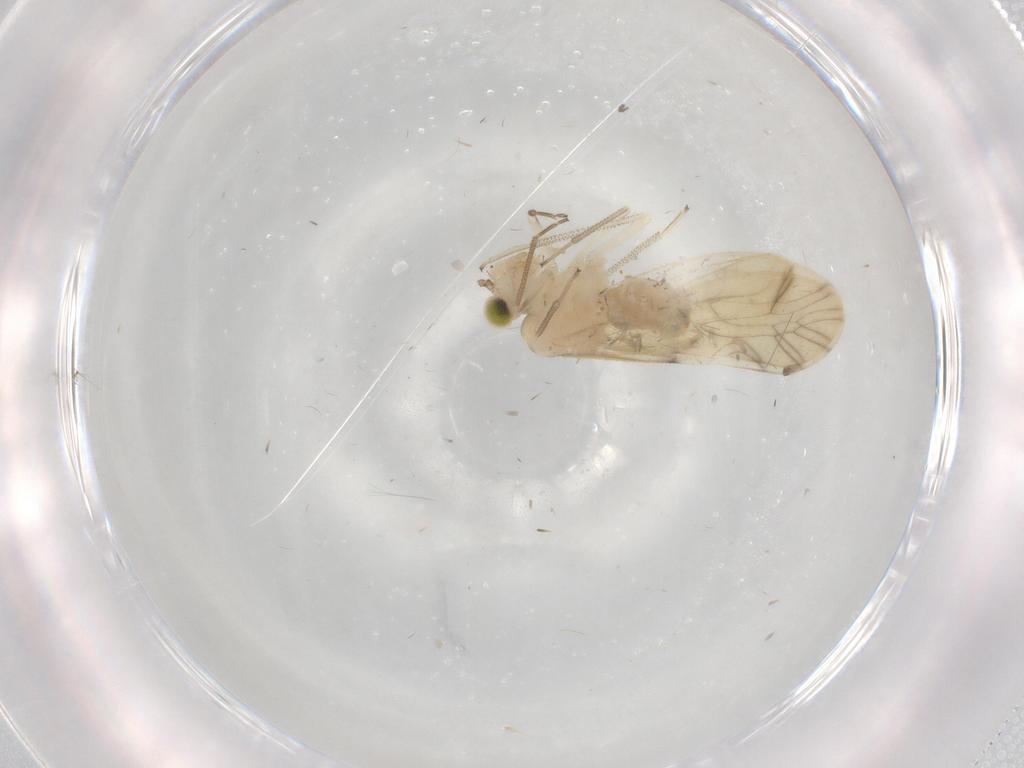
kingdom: Animalia
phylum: Arthropoda
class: Insecta
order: Psocodea
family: Caeciliusidae
